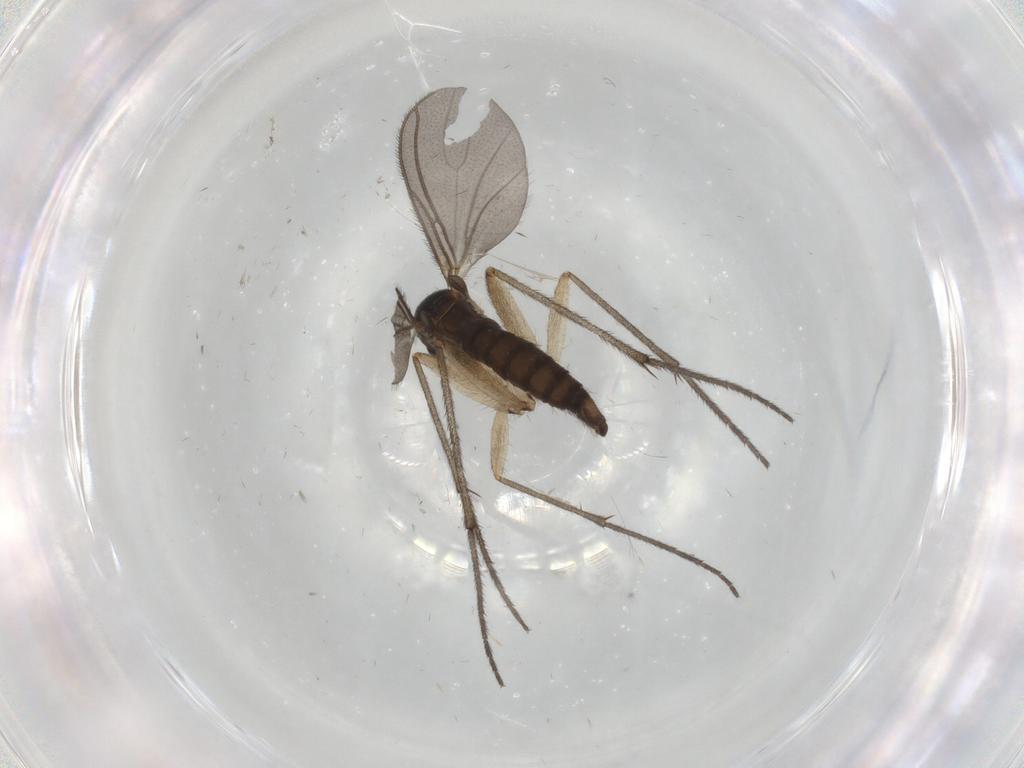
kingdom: Animalia
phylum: Arthropoda
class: Insecta
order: Diptera
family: Sciaridae
